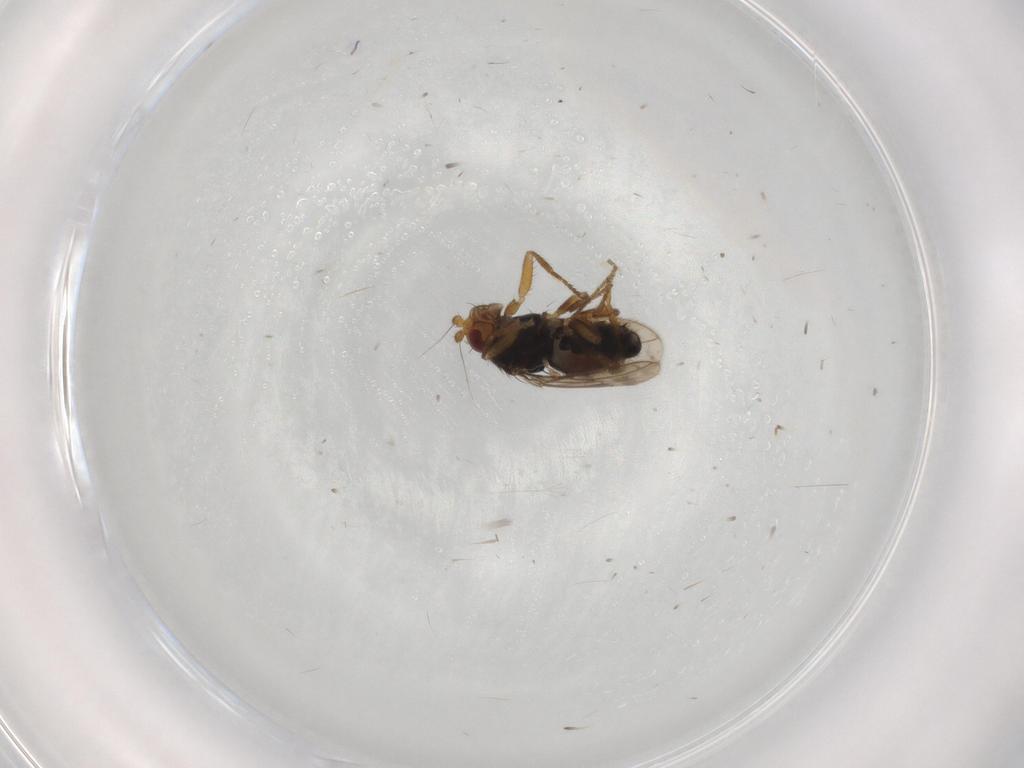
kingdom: Animalia
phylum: Arthropoda
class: Insecta
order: Diptera
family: Sphaeroceridae
